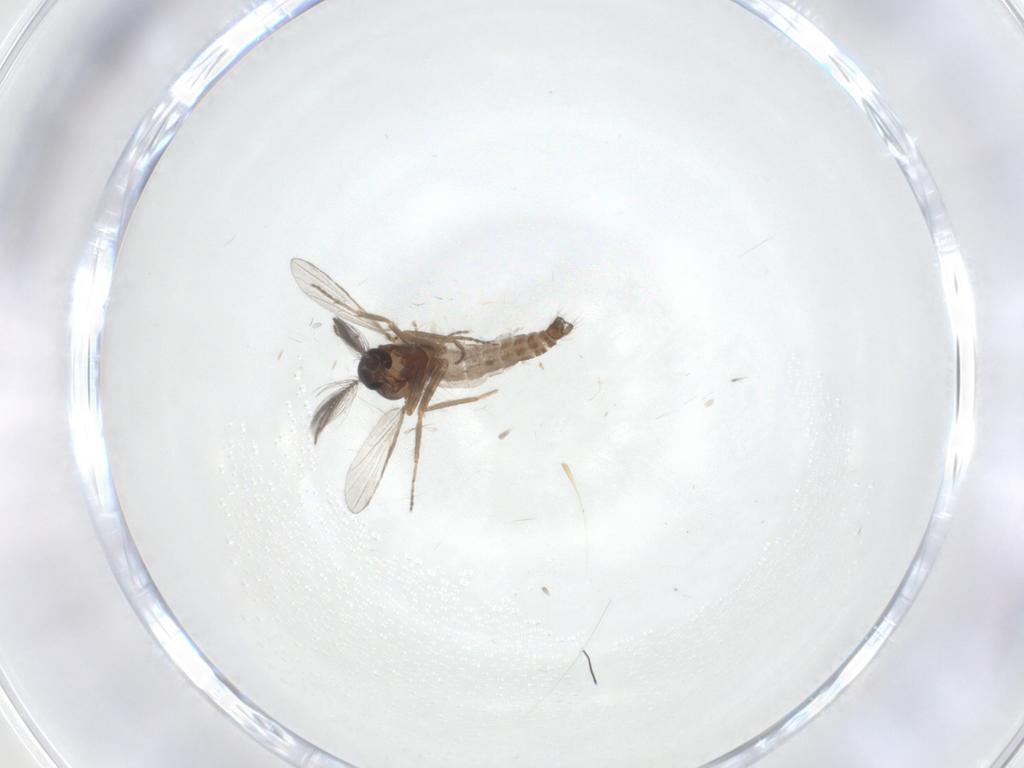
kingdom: Animalia
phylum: Arthropoda
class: Insecta
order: Diptera
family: Ceratopogonidae
